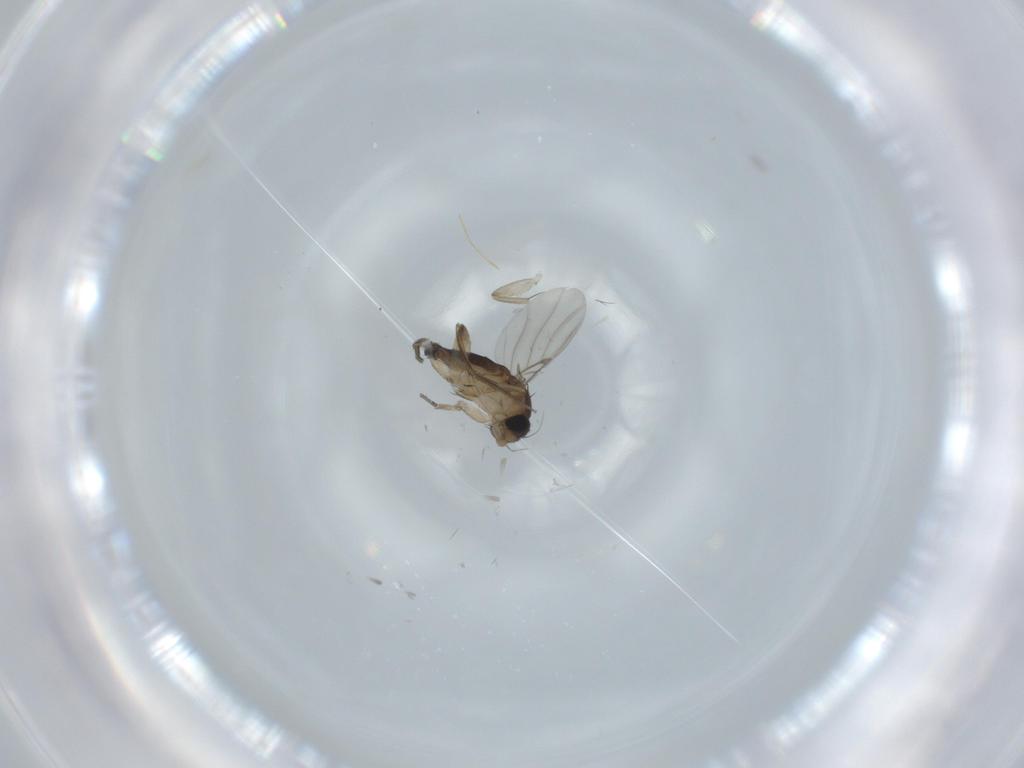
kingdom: Animalia
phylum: Arthropoda
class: Insecta
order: Diptera
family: Phoridae
